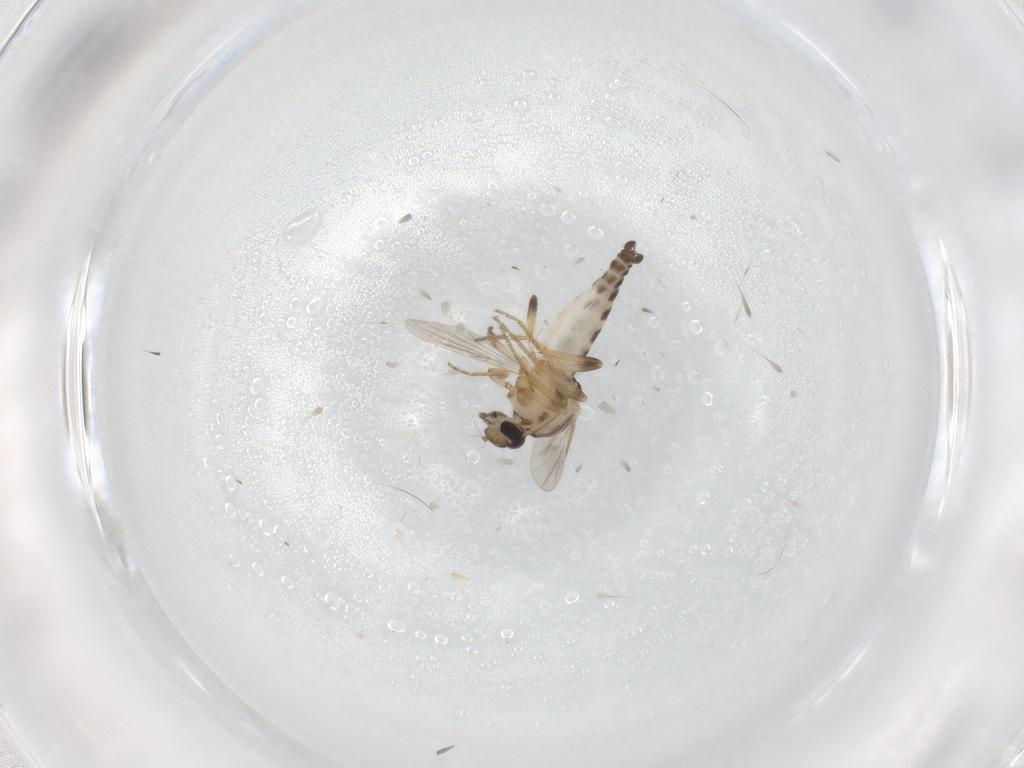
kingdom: Animalia
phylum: Arthropoda
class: Insecta
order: Diptera
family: Ceratopogonidae
